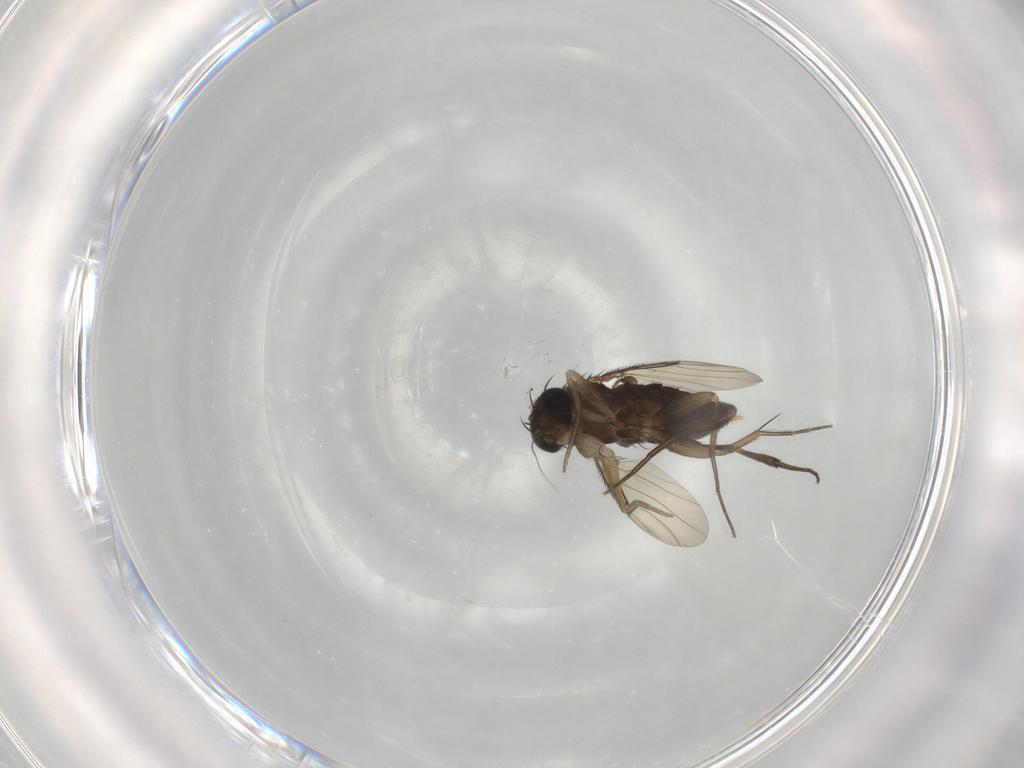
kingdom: Animalia
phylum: Arthropoda
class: Insecta
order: Diptera
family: Phoridae
